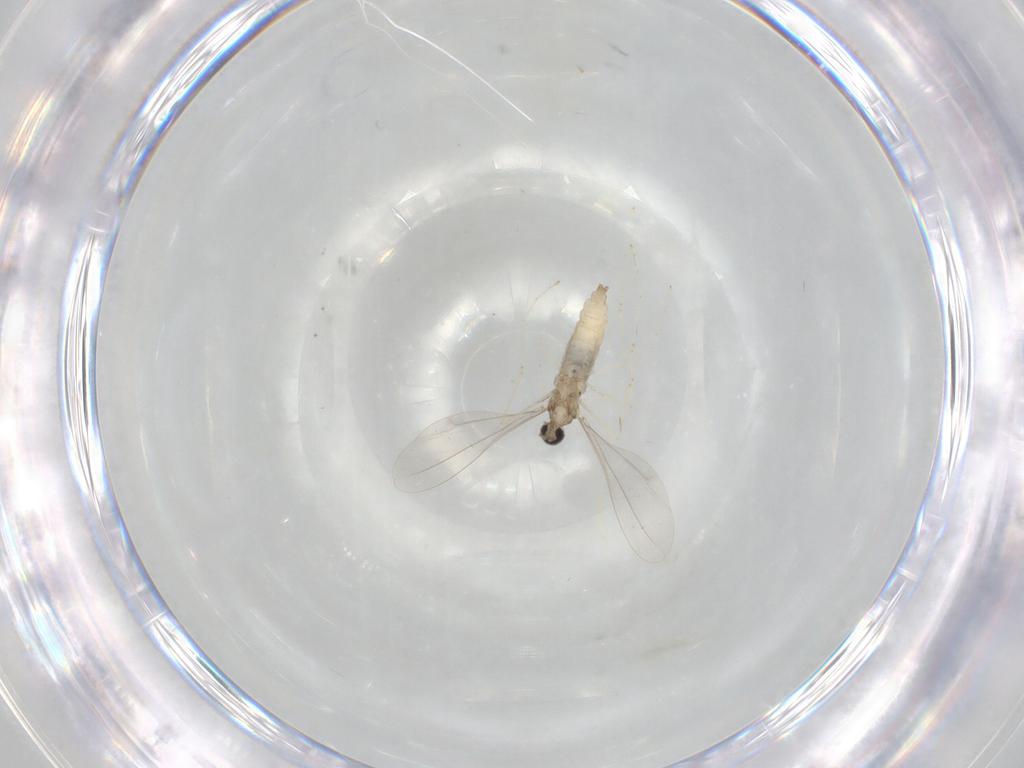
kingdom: Animalia
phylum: Arthropoda
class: Insecta
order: Diptera
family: Cecidomyiidae
